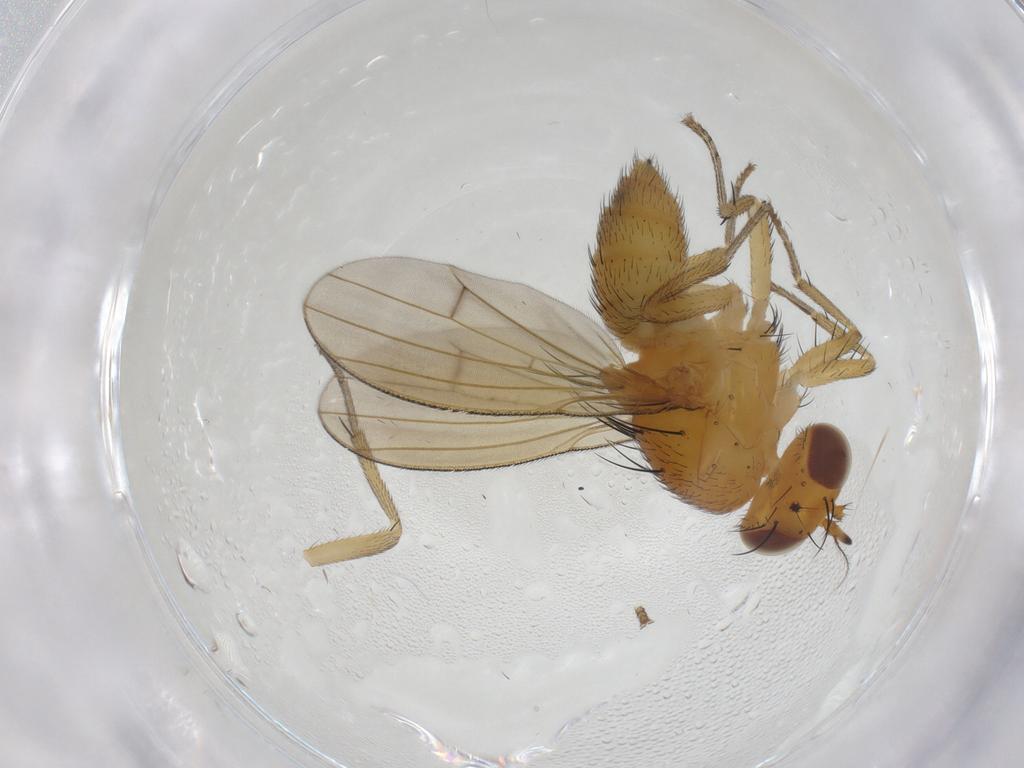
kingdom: Animalia
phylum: Arthropoda
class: Insecta
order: Diptera
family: Lauxaniidae
